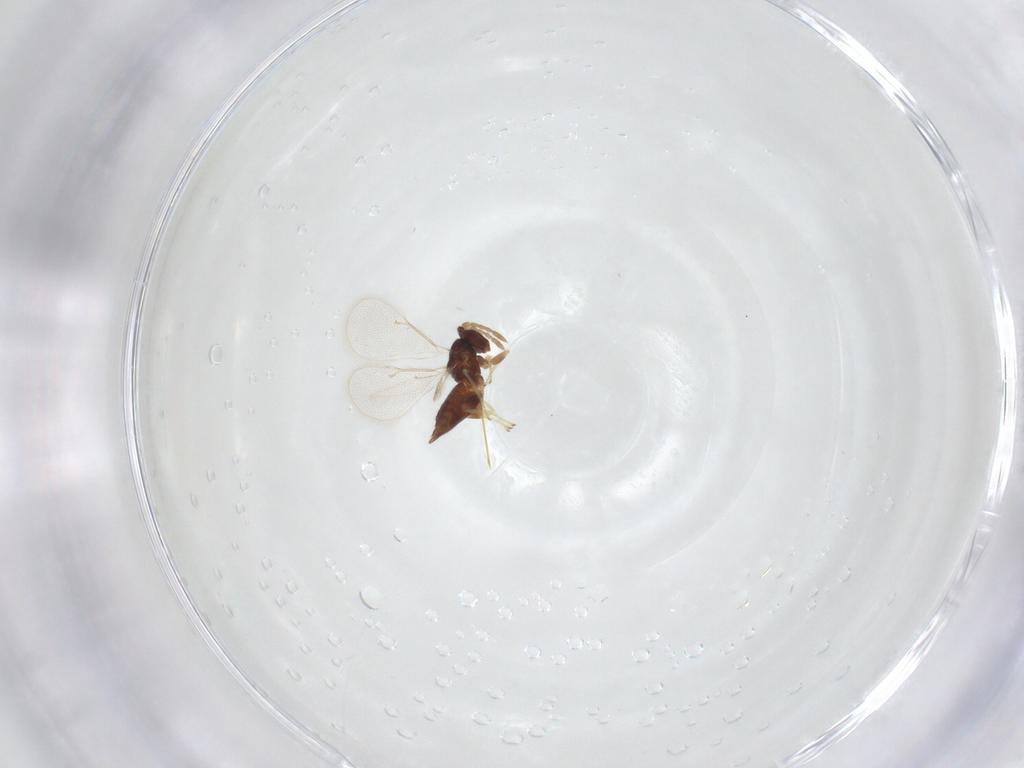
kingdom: Animalia
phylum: Arthropoda
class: Insecta
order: Hymenoptera
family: Eulophidae
